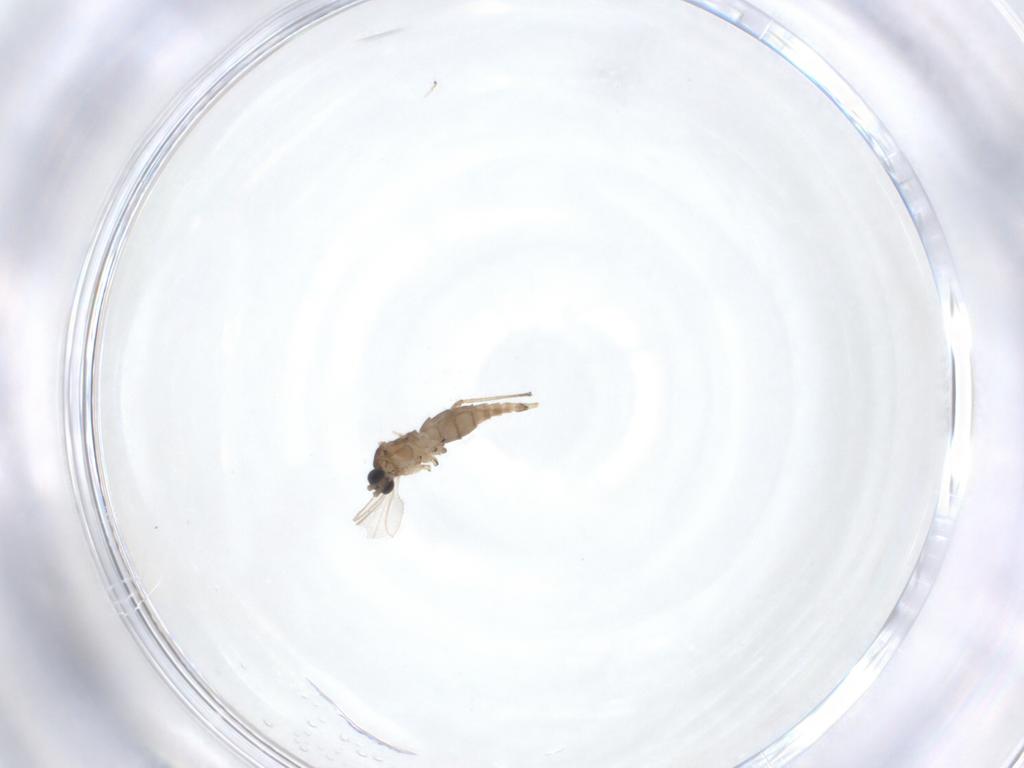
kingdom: Animalia
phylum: Arthropoda
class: Insecta
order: Diptera
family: Sciaridae
